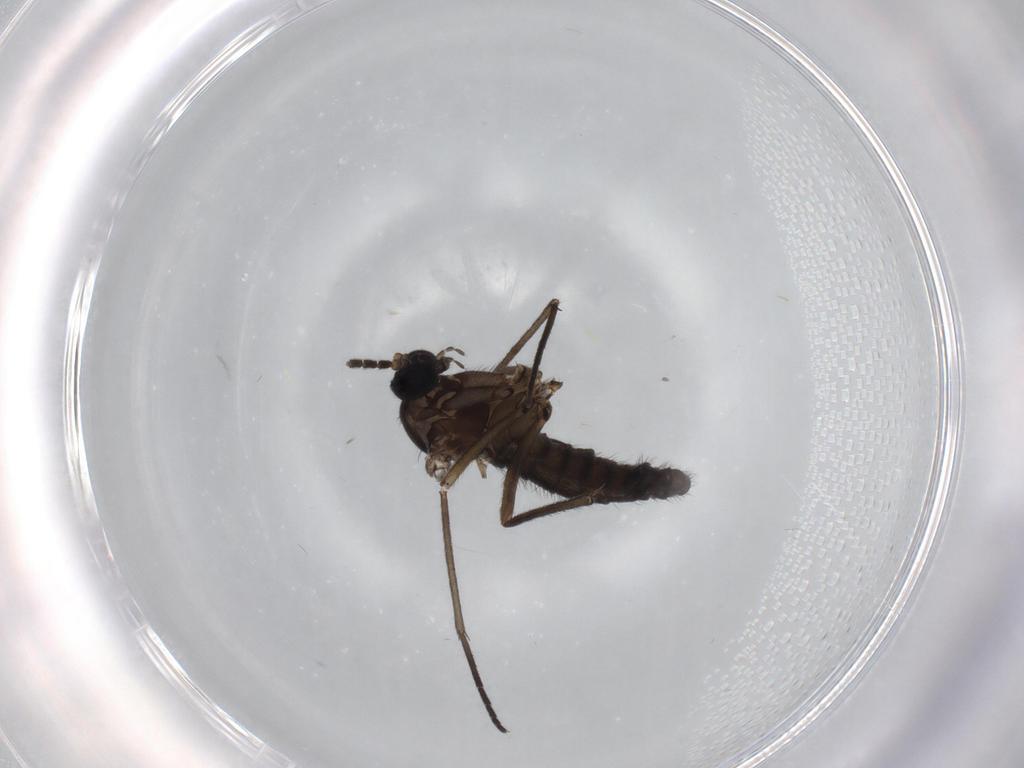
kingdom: Animalia
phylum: Arthropoda
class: Insecta
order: Diptera
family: Sciaridae
